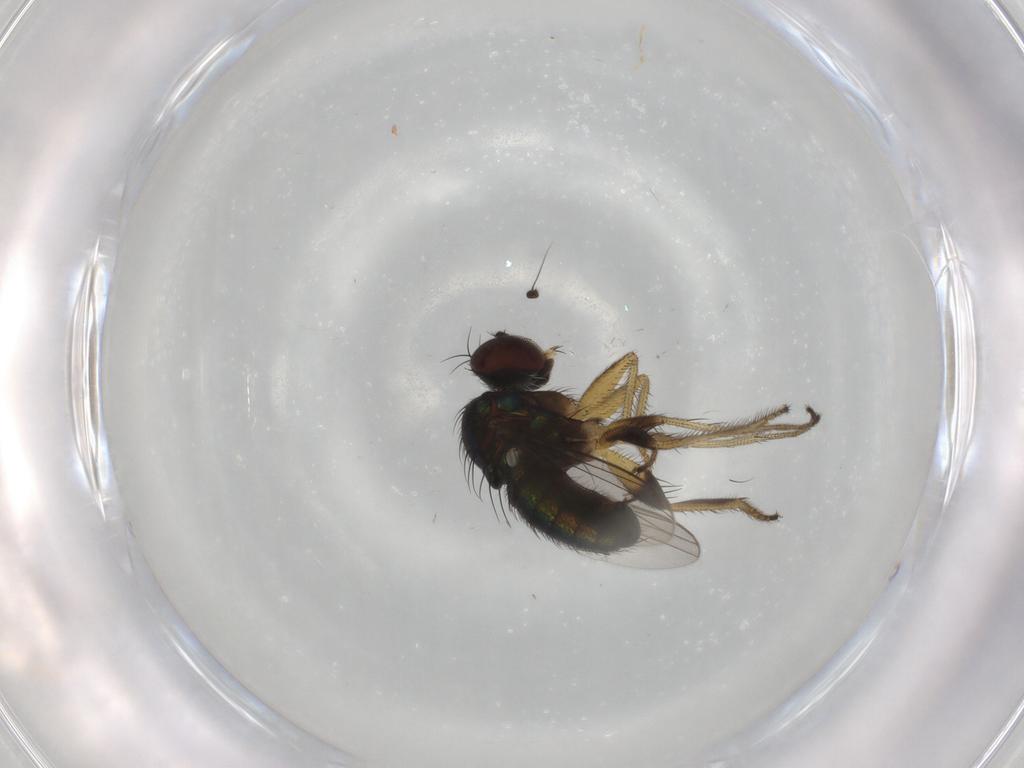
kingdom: Animalia
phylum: Arthropoda
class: Insecta
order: Diptera
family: Dolichopodidae
